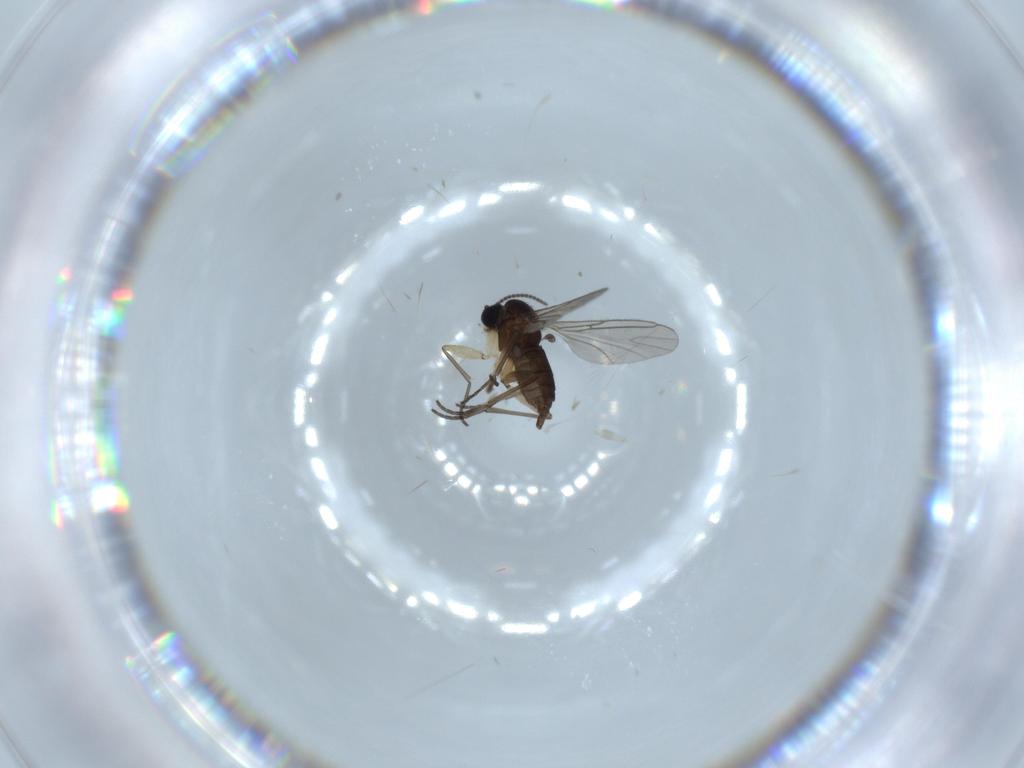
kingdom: Animalia
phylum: Arthropoda
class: Insecta
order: Diptera
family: Sciaridae
